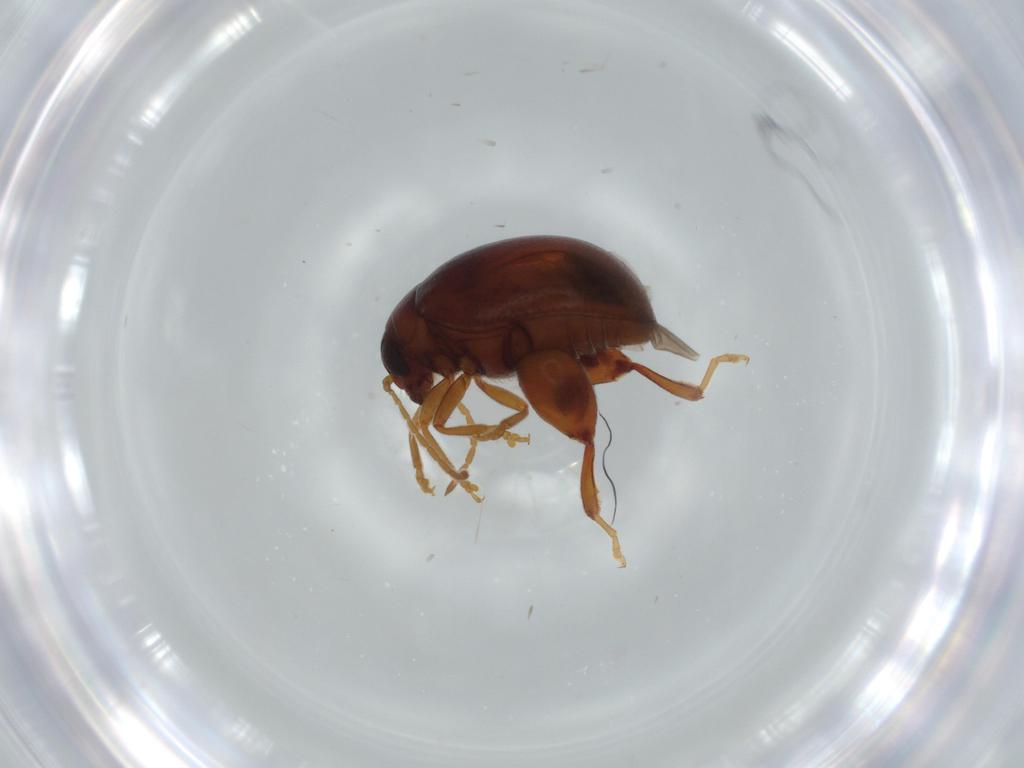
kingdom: Animalia
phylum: Arthropoda
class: Insecta
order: Coleoptera
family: Chrysomelidae
